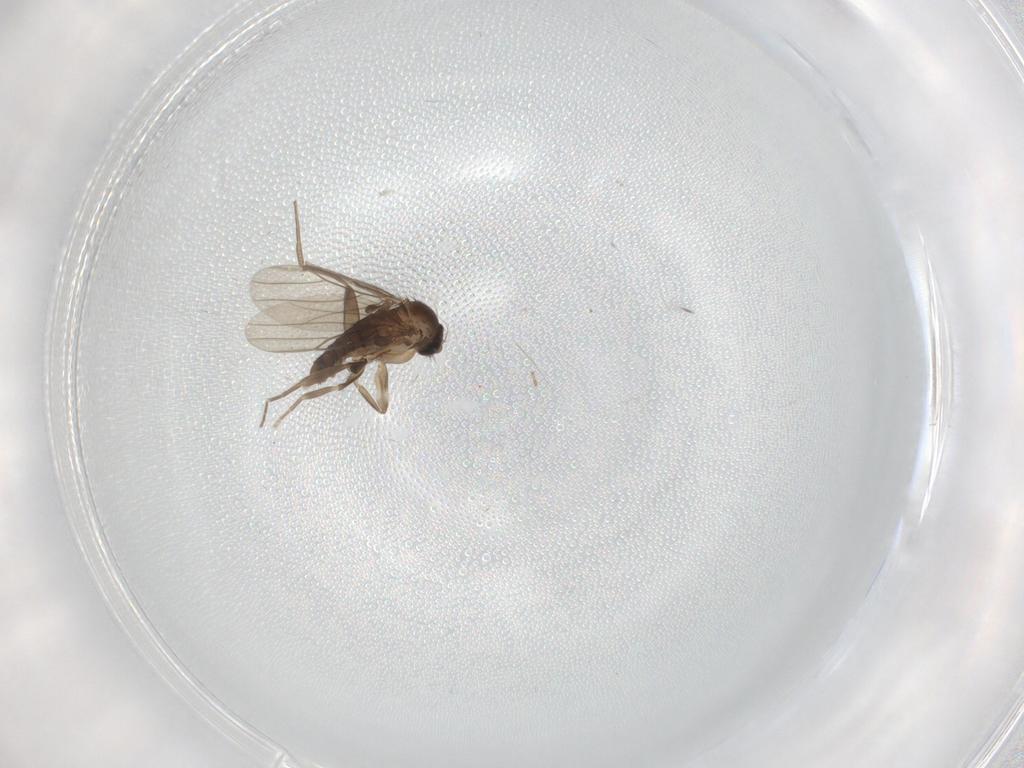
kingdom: Animalia
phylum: Arthropoda
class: Insecta
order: Diptera
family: Phoridae
